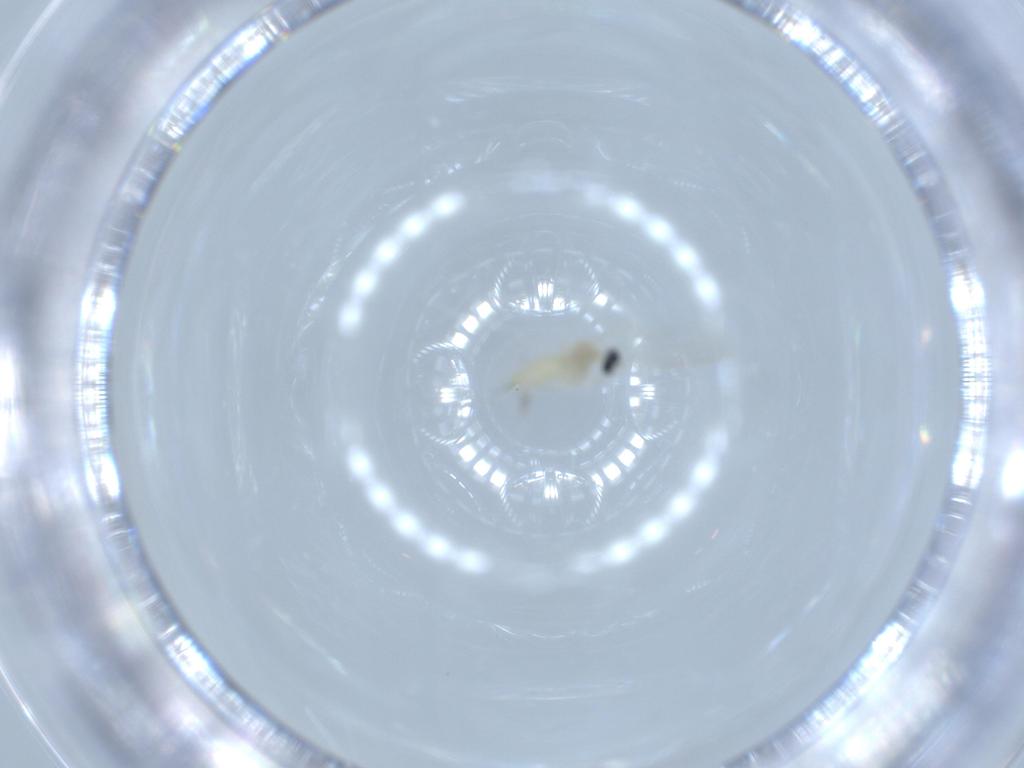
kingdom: Animalia
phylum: Arthropoda
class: Insecta
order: Diptera
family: Cecidomyiidae
